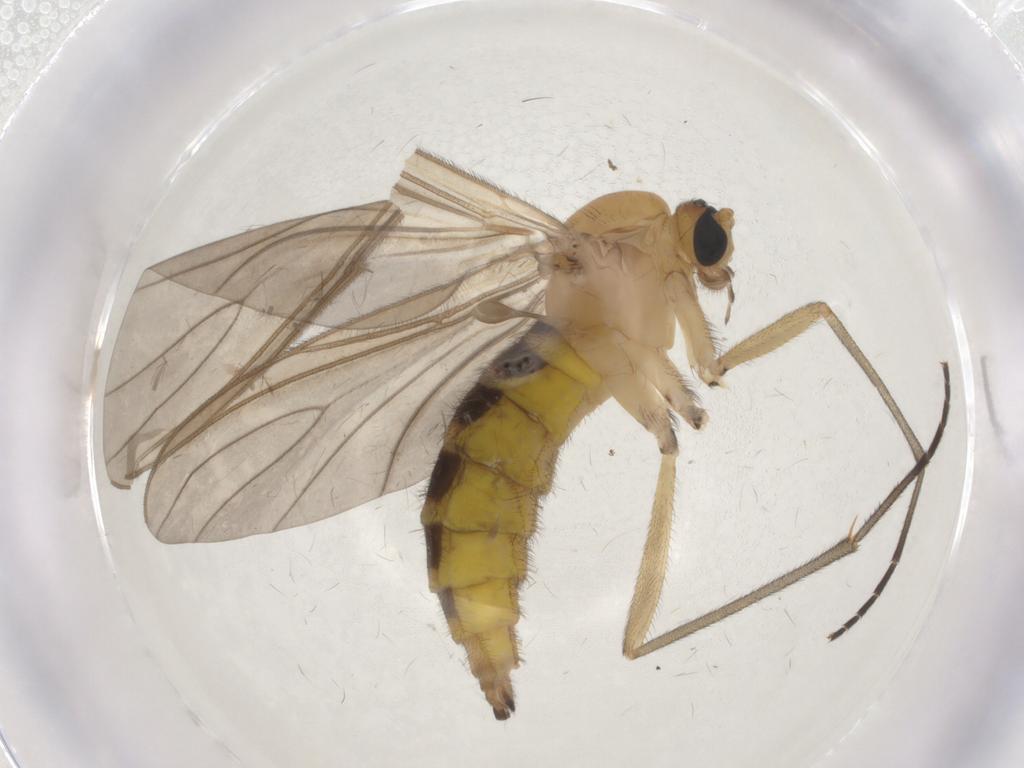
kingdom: Animalia
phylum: Arthropoda
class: Insecta
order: Diptera
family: Sciaridae
